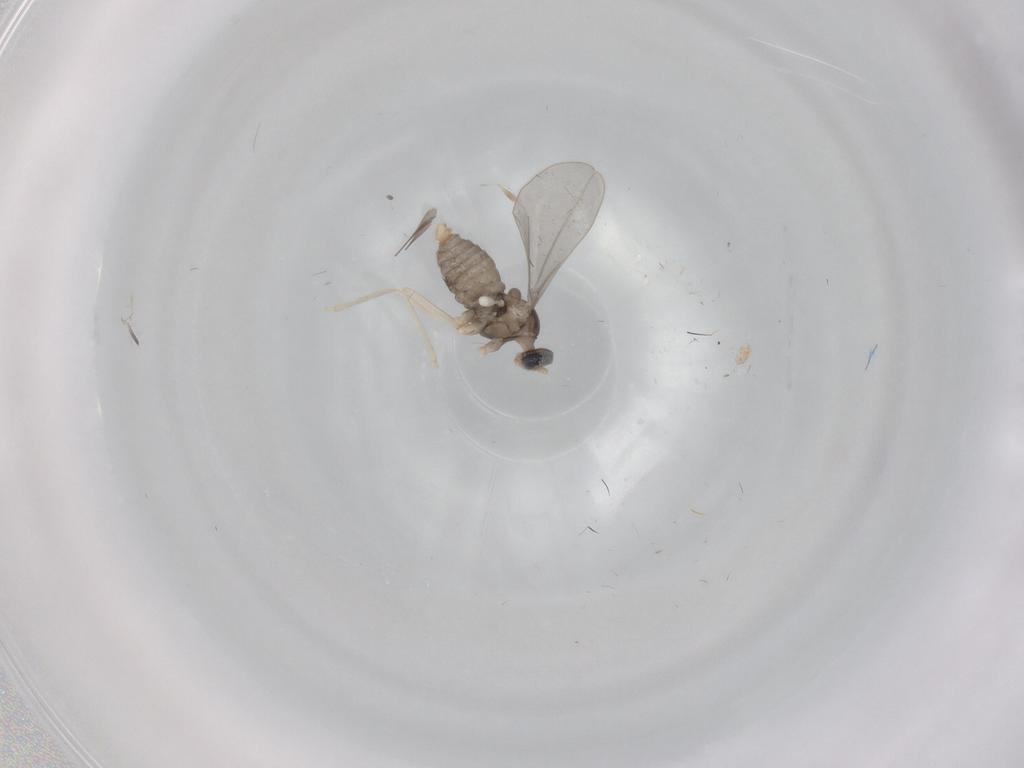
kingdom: Animalia
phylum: Arthropoda
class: Insecta
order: Diptera
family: Cecidomyiidae
